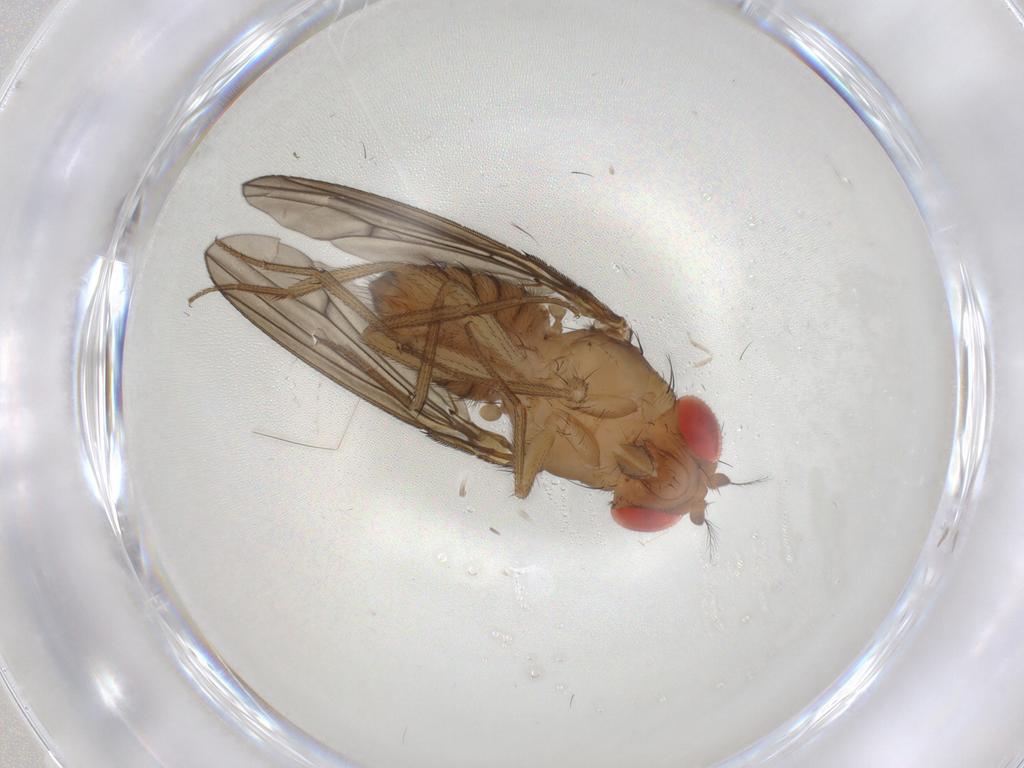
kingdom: Animalia
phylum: Arthropoda
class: Insecta
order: Diptera
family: Drosophilidae
